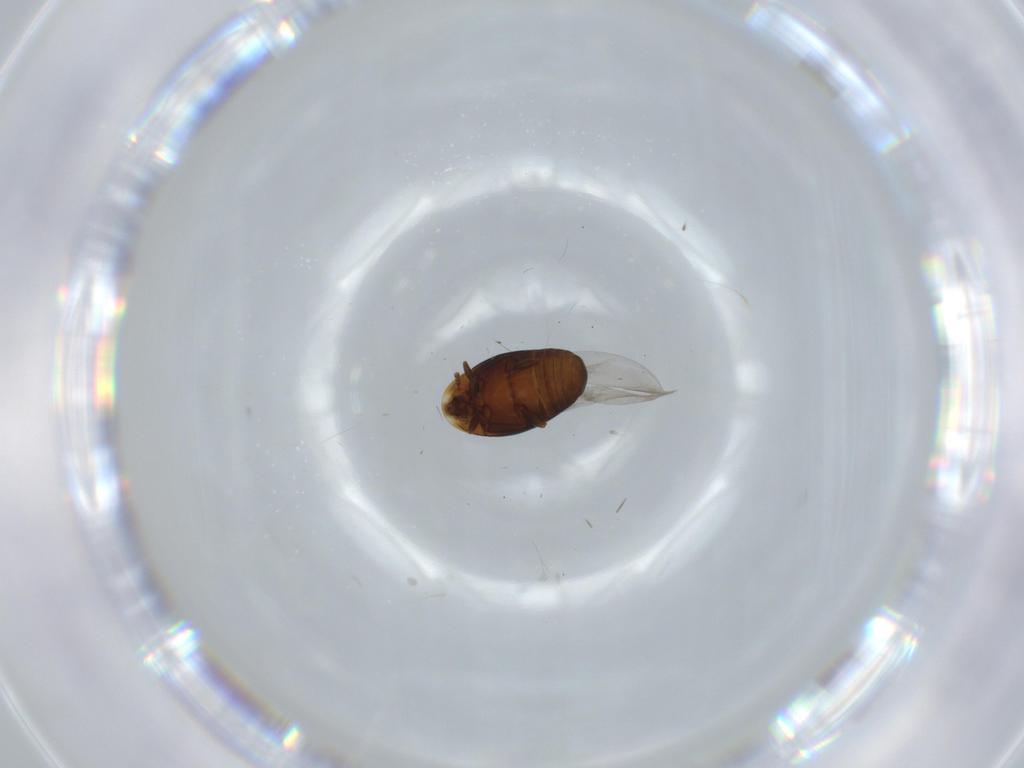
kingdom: Animalia
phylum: Arthropoda
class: Insecta
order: Coleoptera
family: Corylophidae
